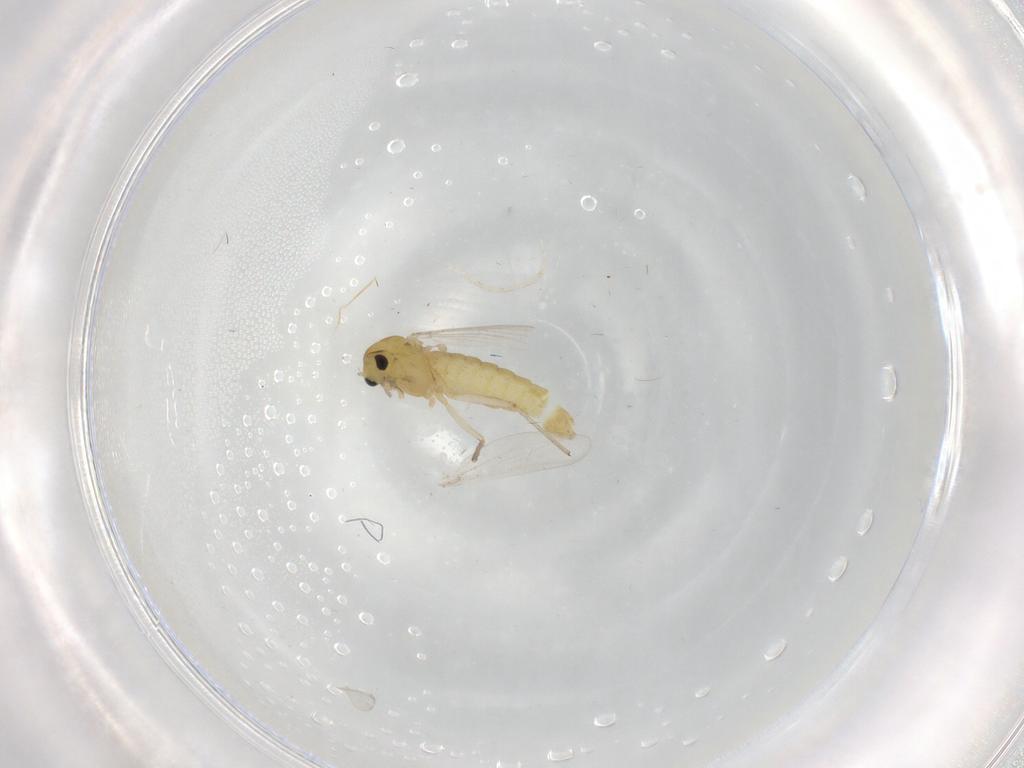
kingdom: Animalia
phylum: Arthropoda
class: Insecta
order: Diptera
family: Chironomidae
